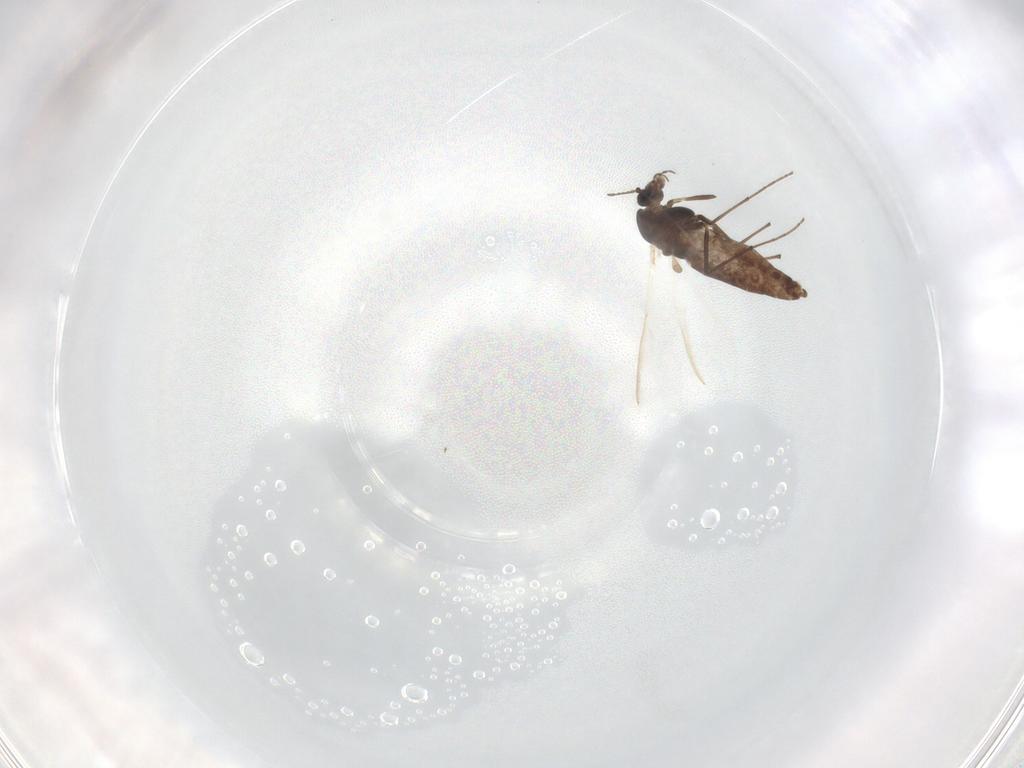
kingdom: Animalia
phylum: Arthropoda
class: Insecta
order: Diptera
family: Chironomidae
